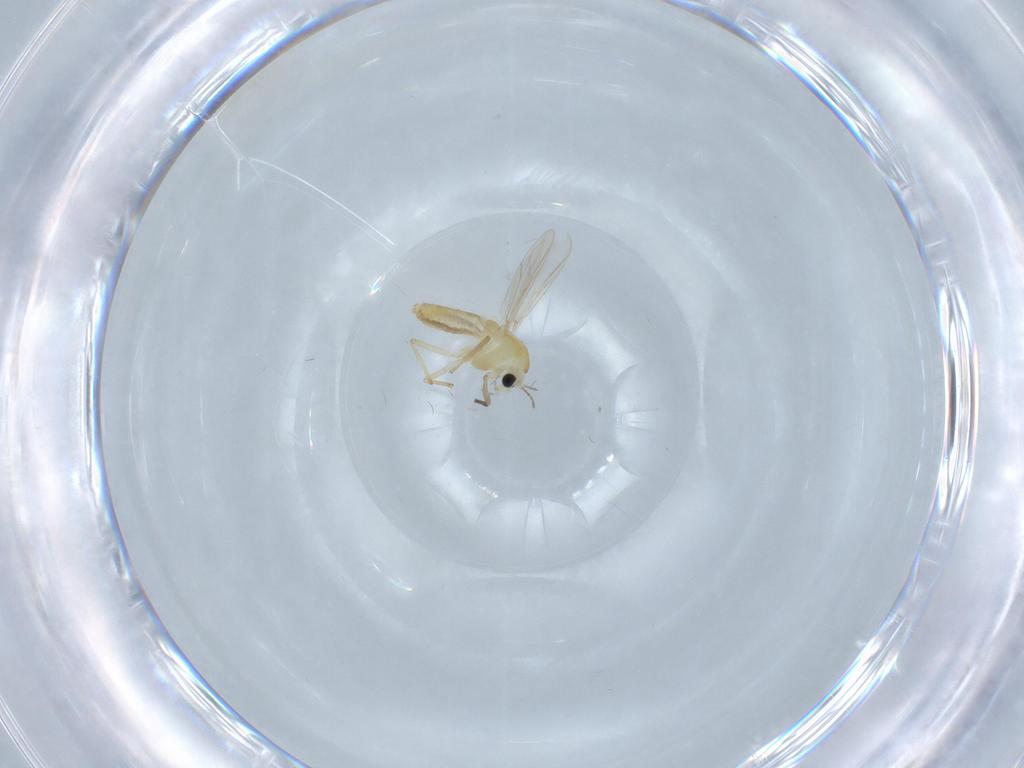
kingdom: Animalia
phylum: Arthropoda
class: Insecta
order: Diptera
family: Chironomidae
